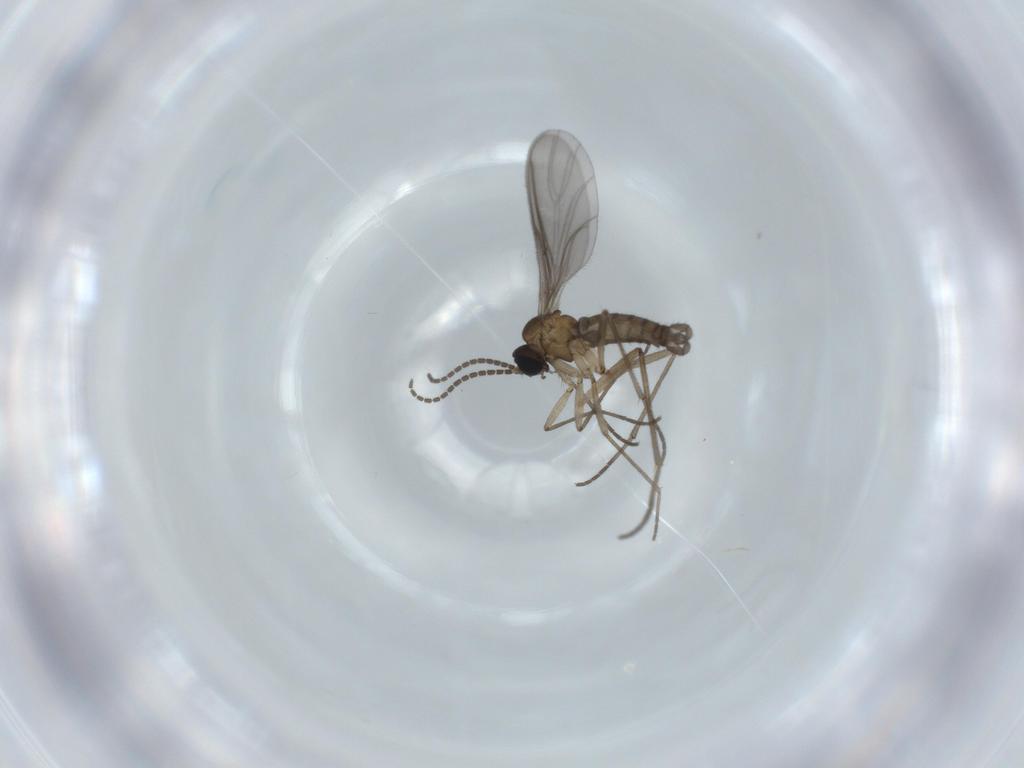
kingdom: Animalia
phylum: Arthropoda
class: Insecta
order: Diptera
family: Sciaridae
